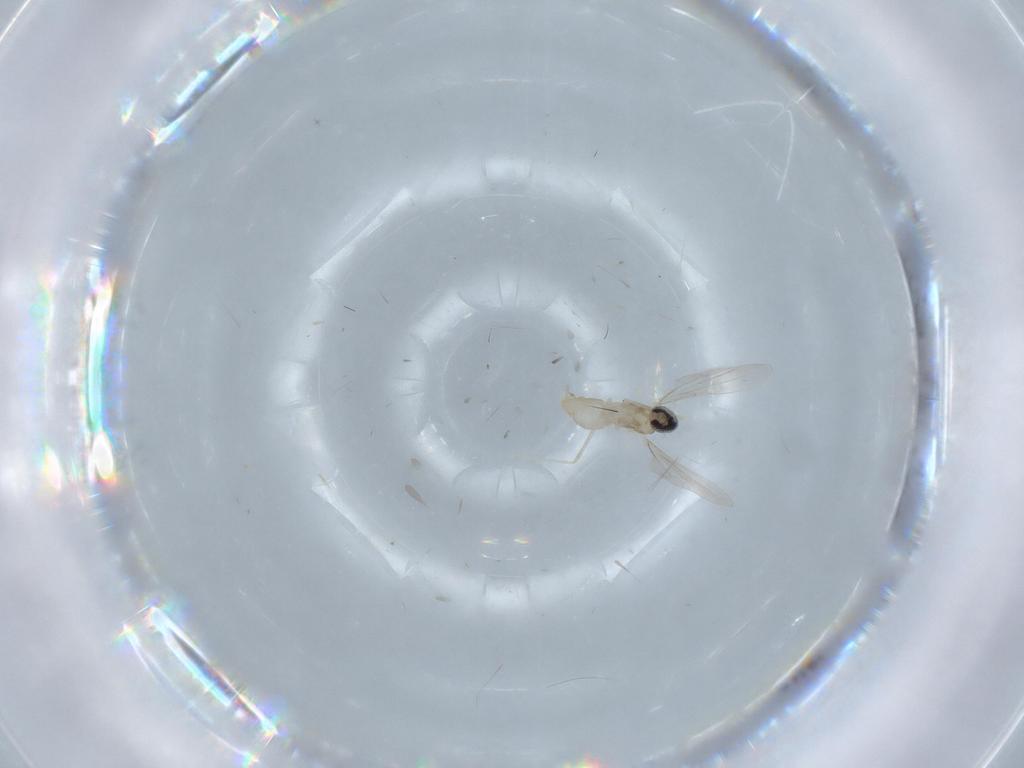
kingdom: Animalia
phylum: Arthropoda
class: Insecta
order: Diptera
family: Cecidomyiidae
